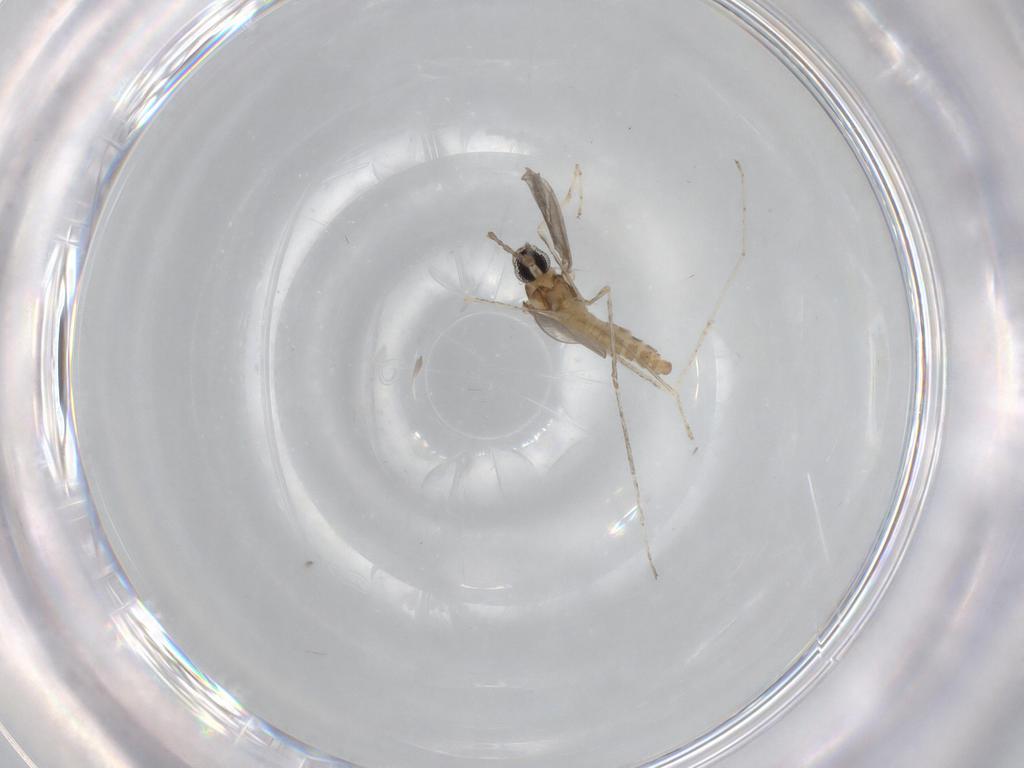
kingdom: Animalia
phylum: Arthropoda
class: Insecta
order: Diptera
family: Cecidomyiidae
